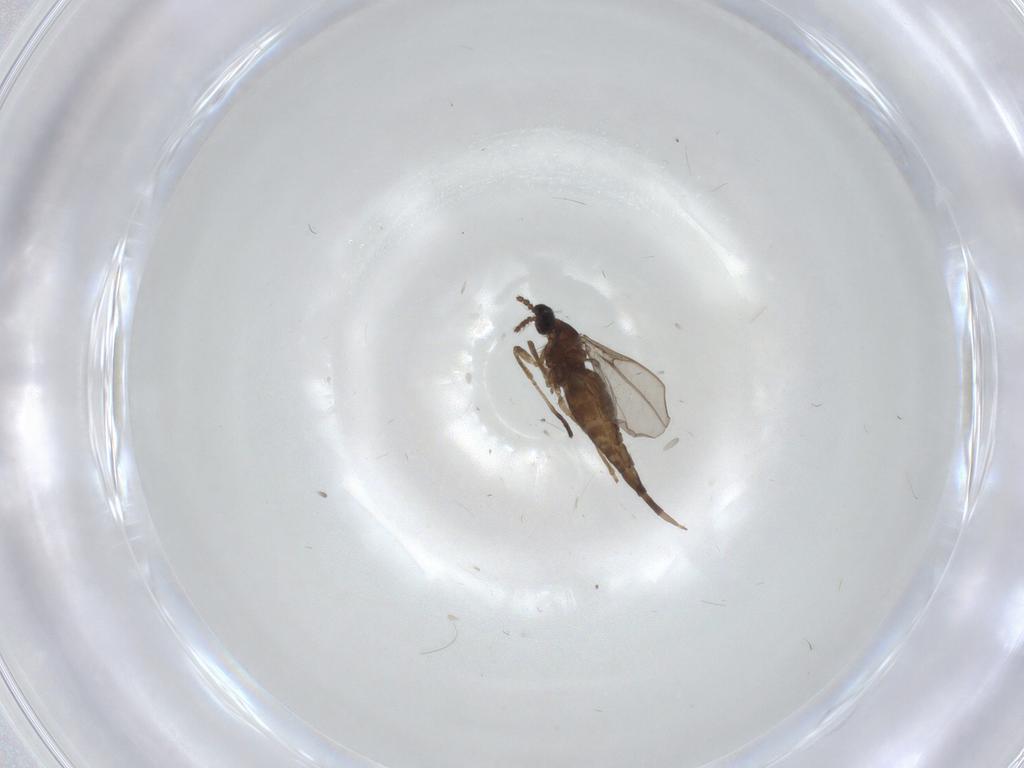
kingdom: Animalia
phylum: Arthropoda
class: Insecta
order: Diptera
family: Cecidomyiidae
